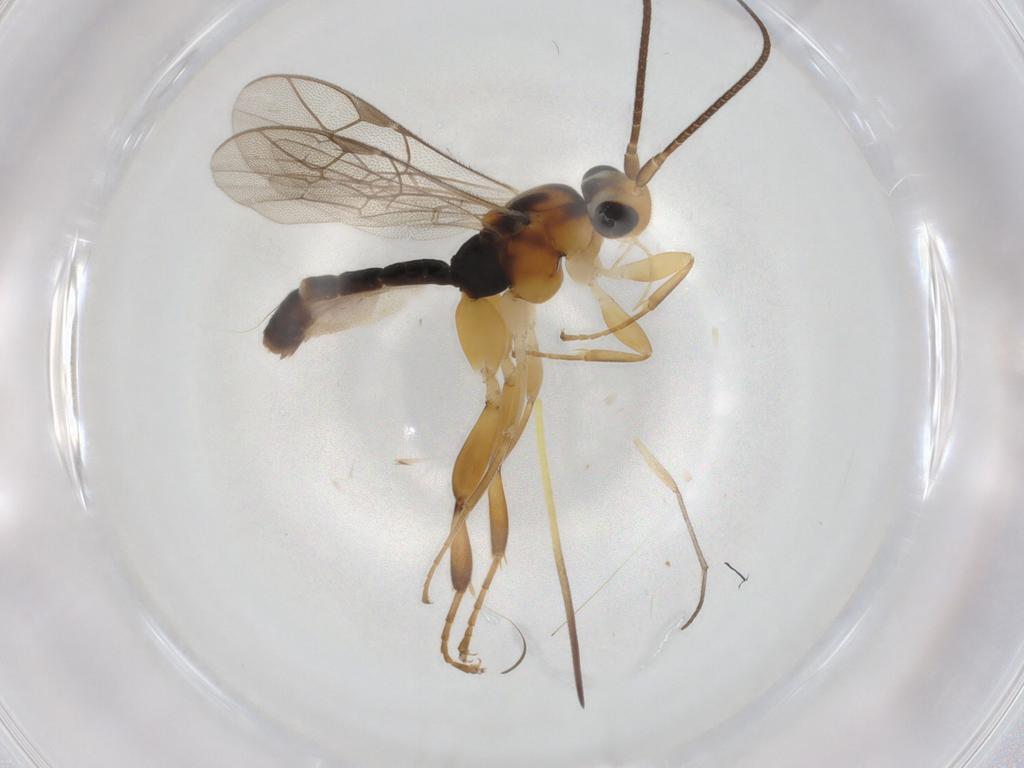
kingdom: Animalia
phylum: Arthropoda
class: Insecta
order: Hymenoptera
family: Ichneumonidae
